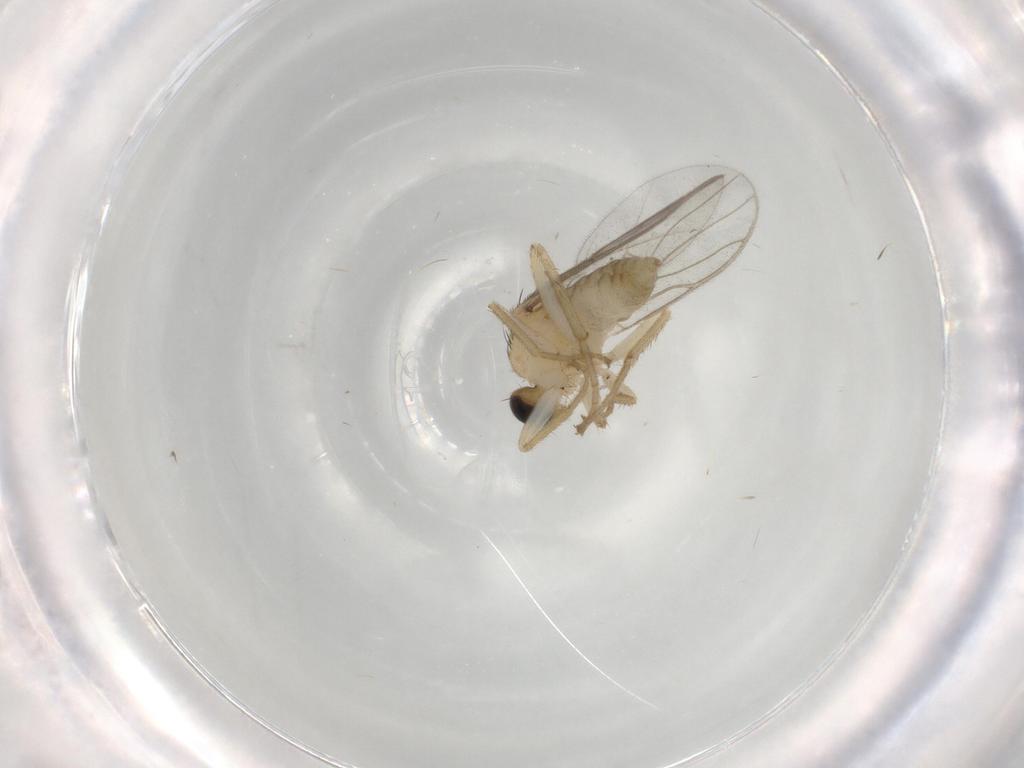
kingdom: Animalia
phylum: Arthropoda
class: Insecta
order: Diptera
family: Hybotidae
